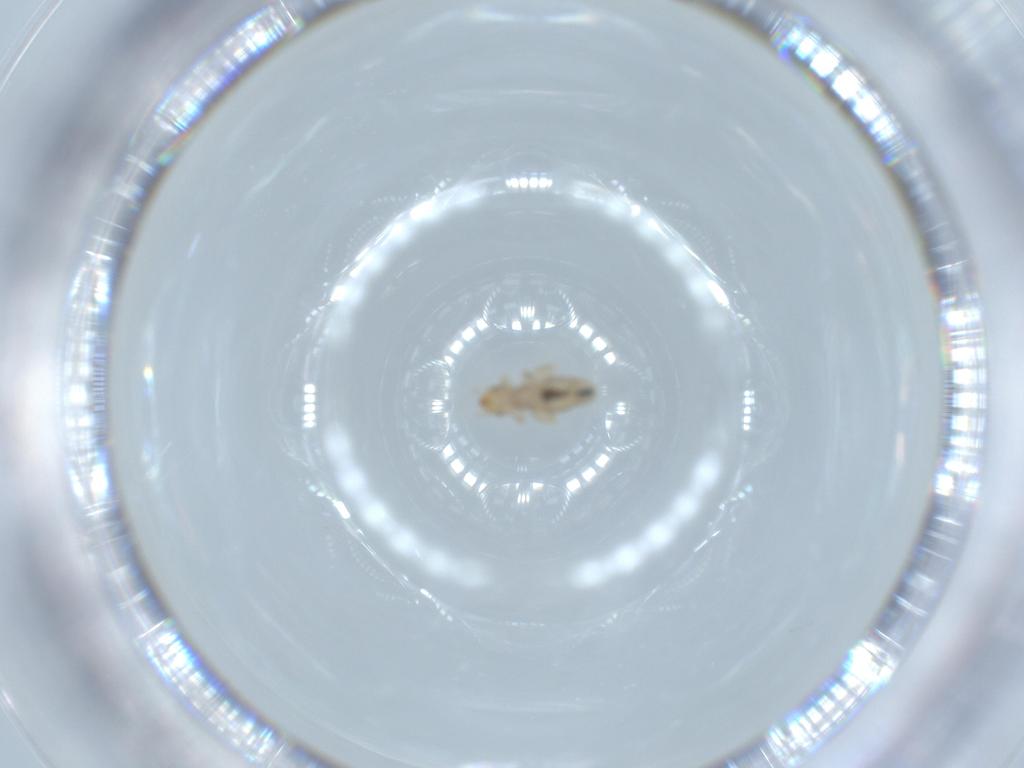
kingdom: Animalia
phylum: Arthropoda
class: Insecta
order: Psocodea
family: Liposcelididae
